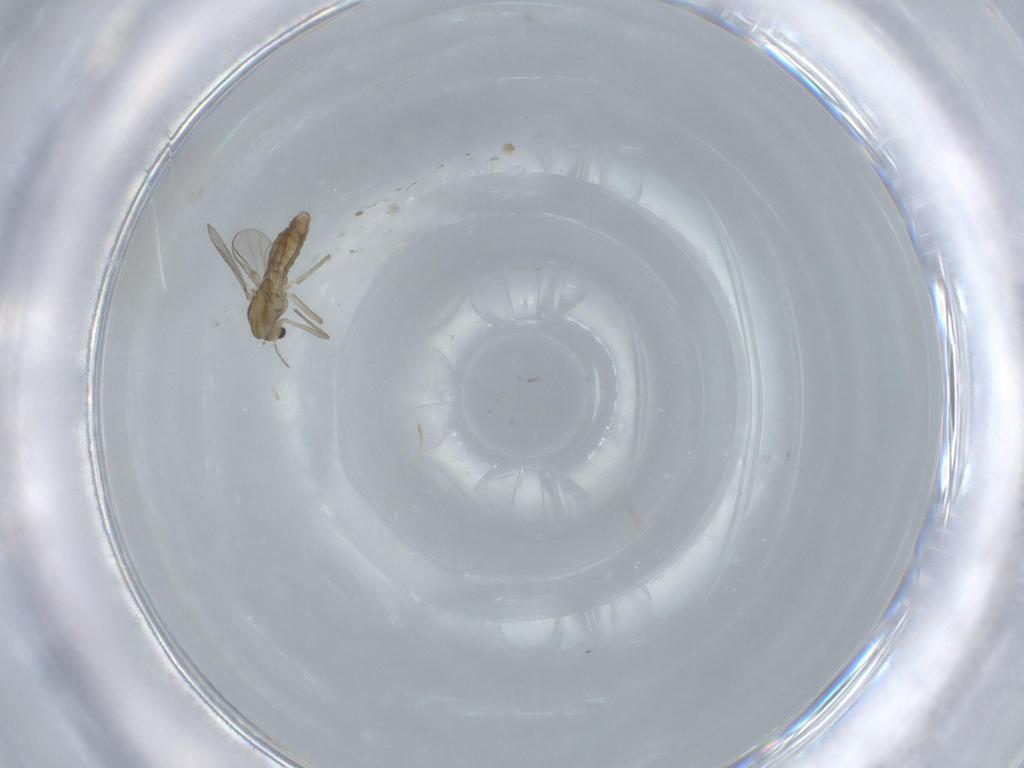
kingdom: Animalia
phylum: Arthropoda
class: Insecta
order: Diptera
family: Chironomidae
